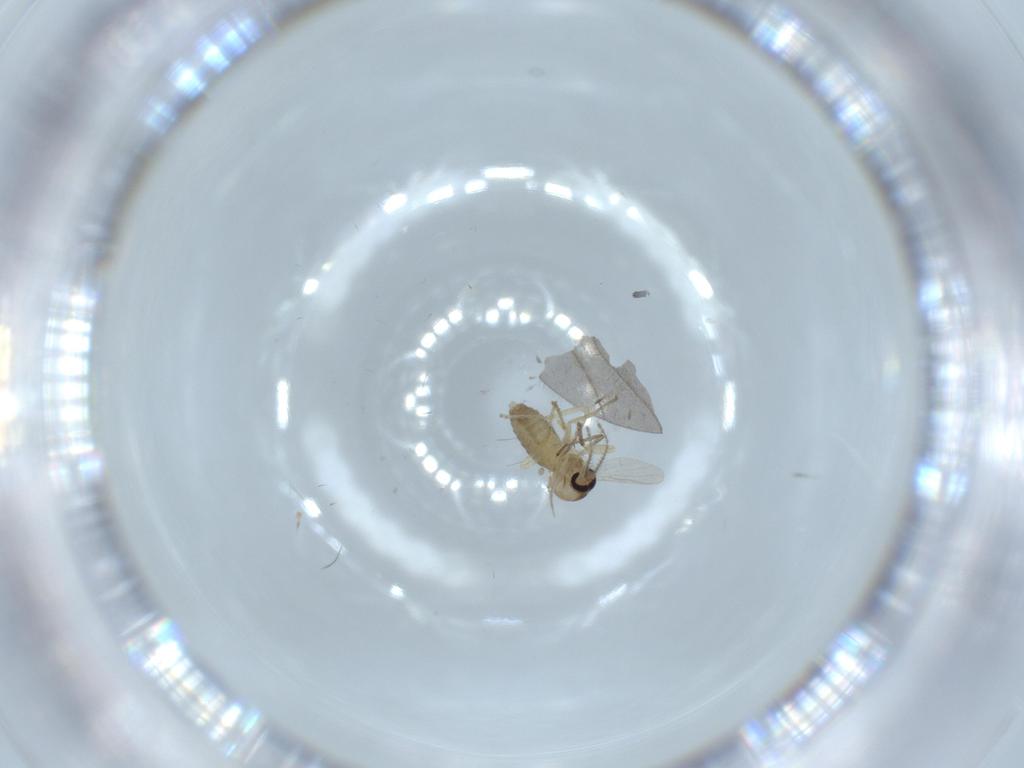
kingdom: Animalia
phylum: Arthropoda
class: Insecta
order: Diptera
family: Ceratopogonidae
